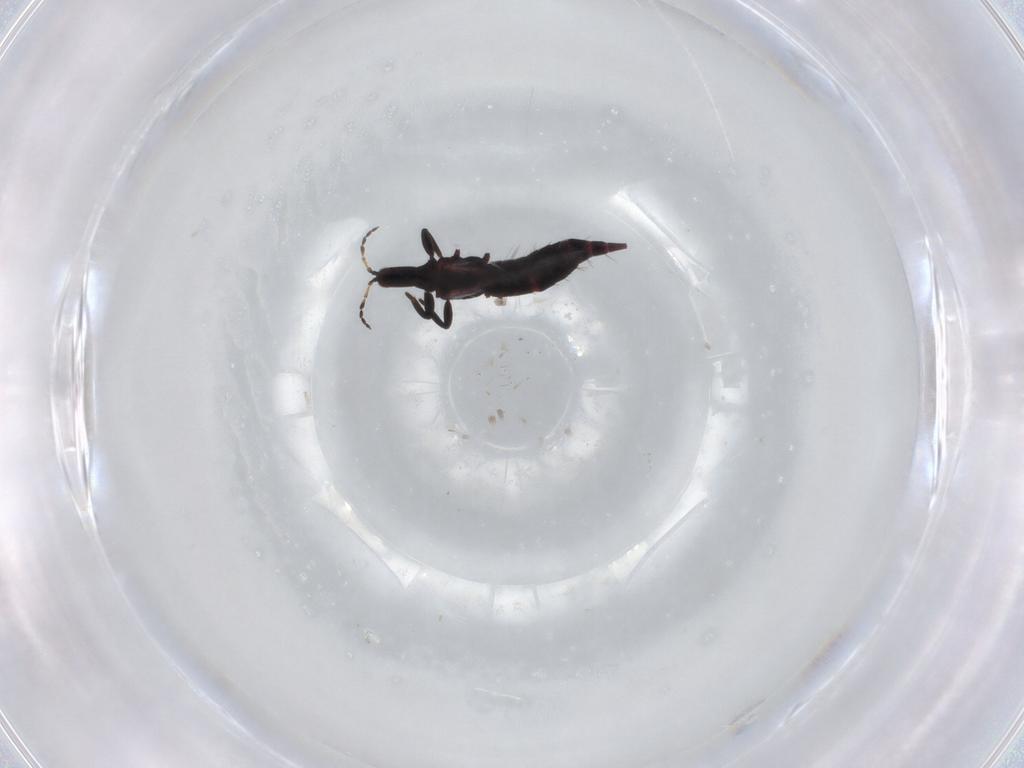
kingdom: Animalia
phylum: Arthropoda
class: Insecta
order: Thysanoptera
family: Phlaeothripidae
